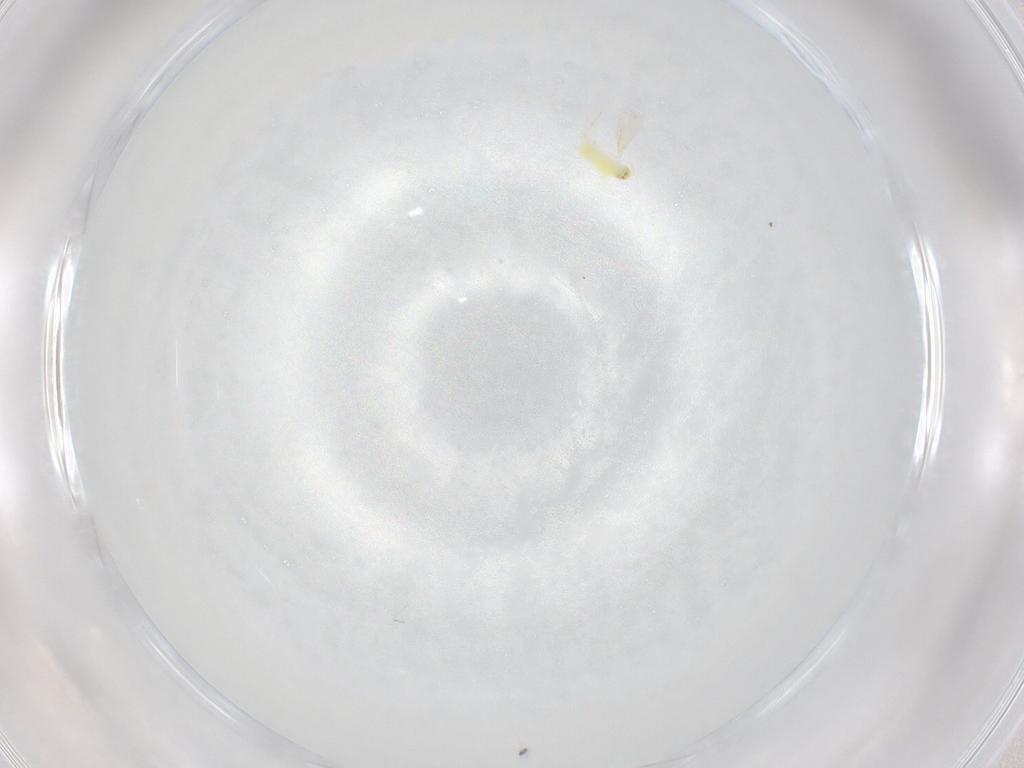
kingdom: Animalia
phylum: Arthropoda
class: Insecta
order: Hymenoptera
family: Aphelinidae
